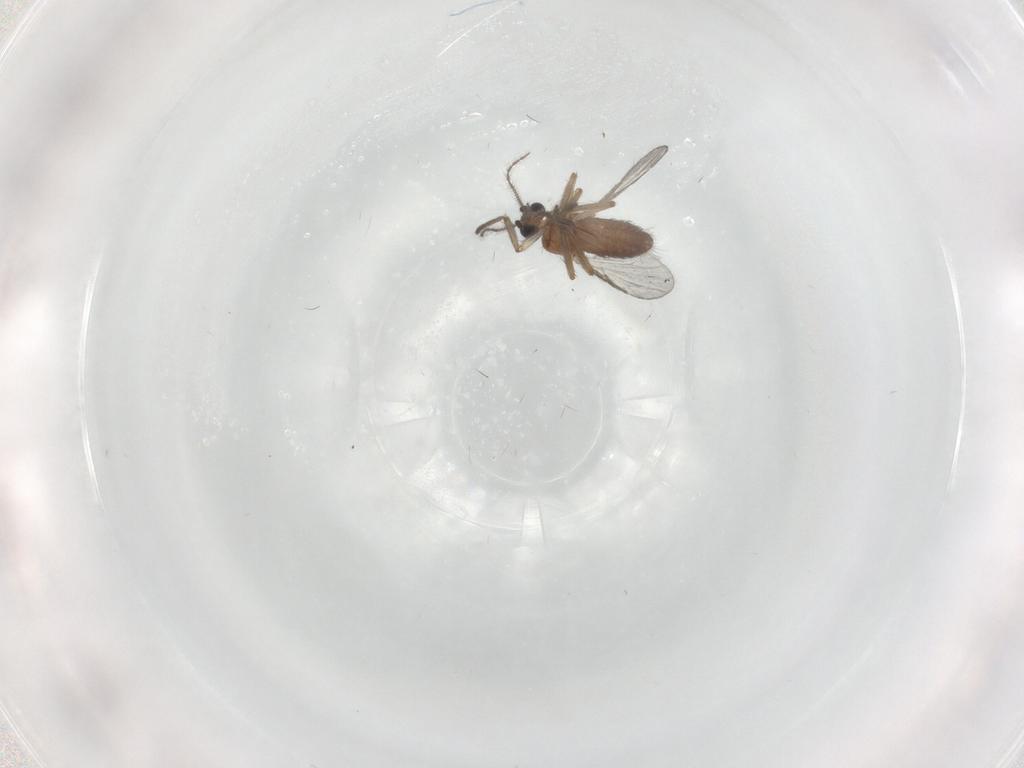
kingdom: Animalia
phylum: Arthropoda
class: Insecta
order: Diptera
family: Ceratopogonidae
